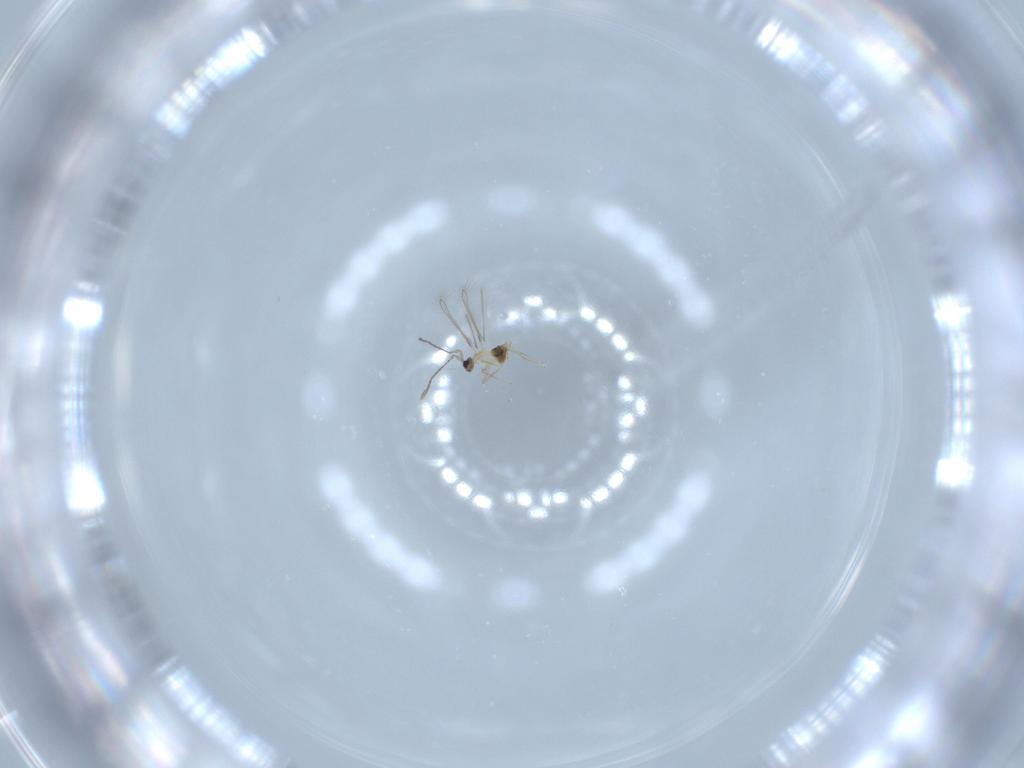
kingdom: Animalia
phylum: Arthropoda
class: Insecta
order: Hymenoptera
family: Mymaridae
